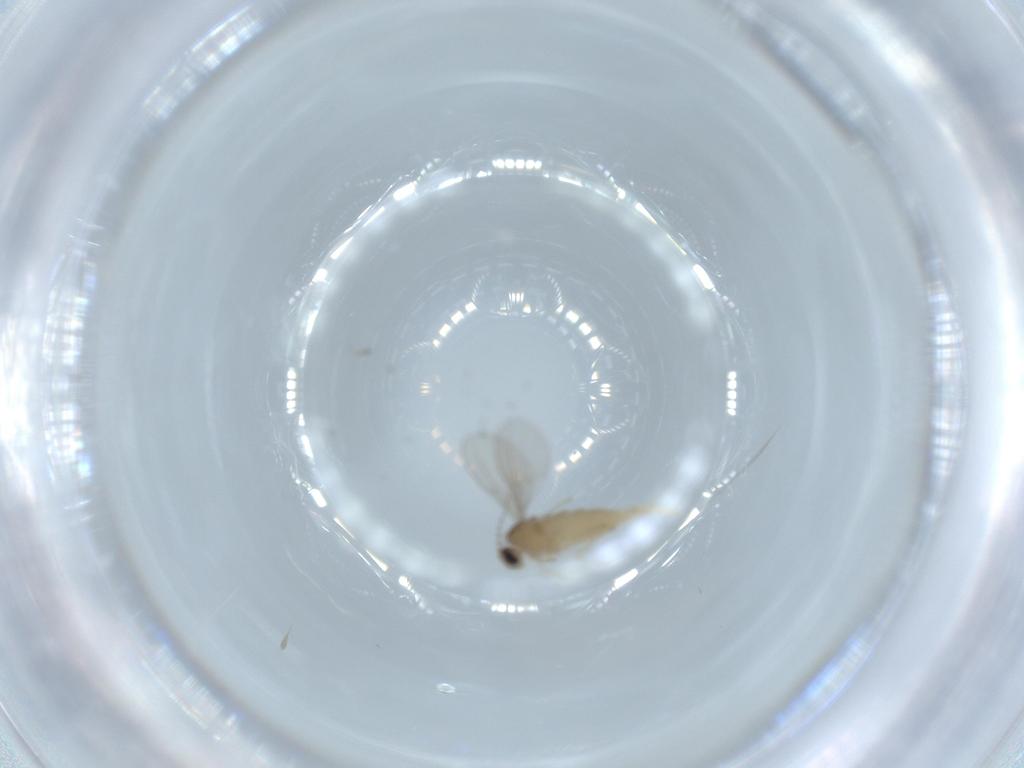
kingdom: Animalia
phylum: Arthropoda
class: Insecta
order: Diptera
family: Cecidomyiidae
